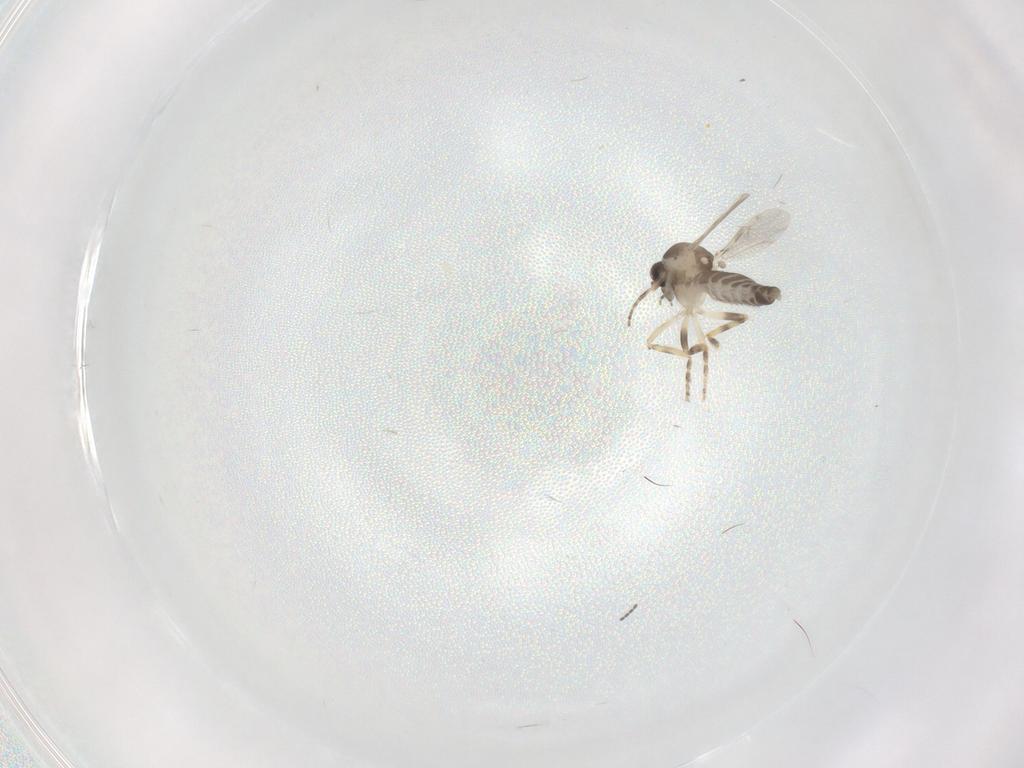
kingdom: Animalia
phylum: Arthropoda
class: Insecta
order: Diptera
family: Ceratopogonidae
